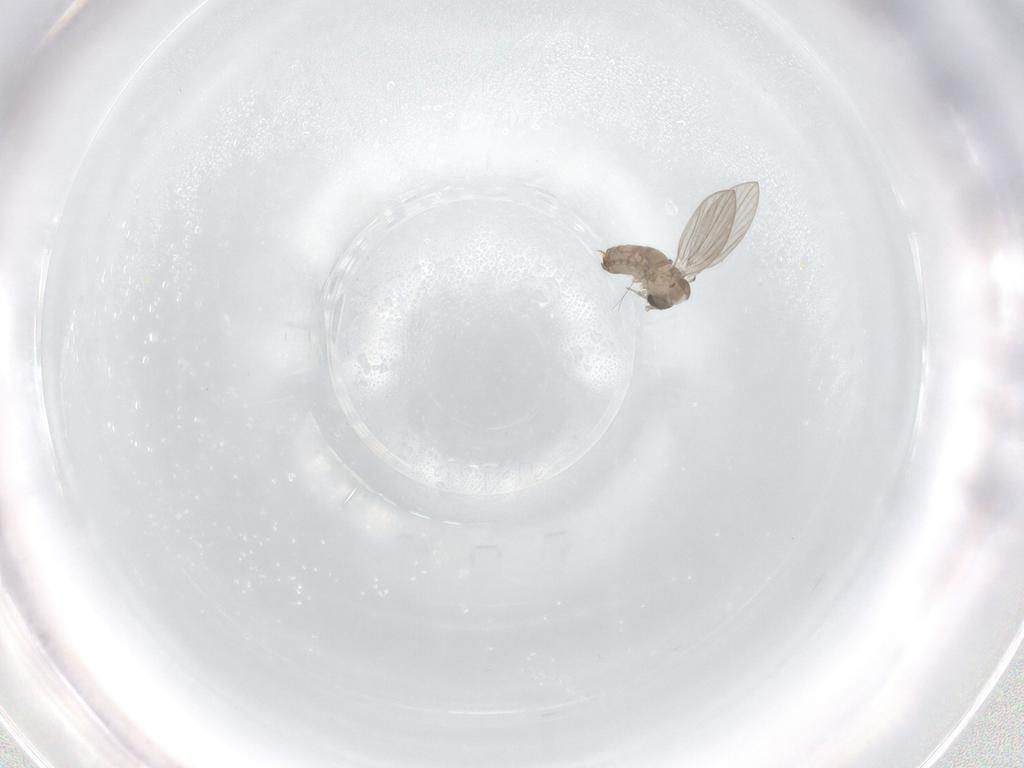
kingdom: Animalia
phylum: Arthropoda
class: Insecta
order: Diptera
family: Psychodidae
